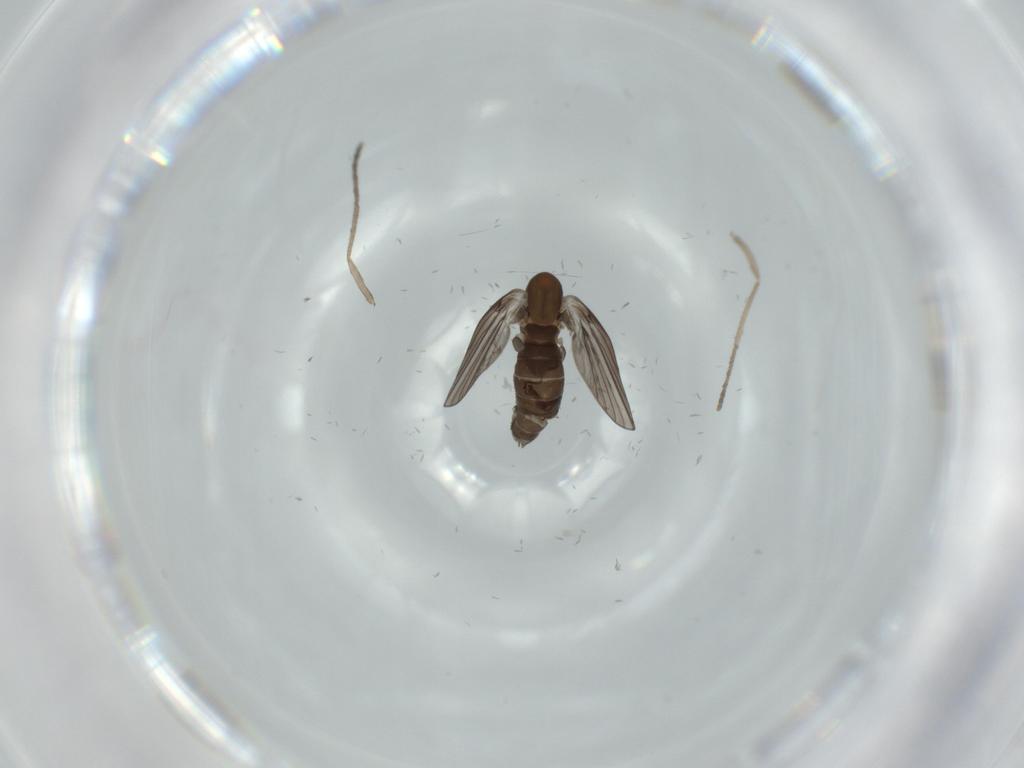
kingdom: Animalia
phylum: Arthropoda
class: Insecta
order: Diptera
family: Psychodidae
